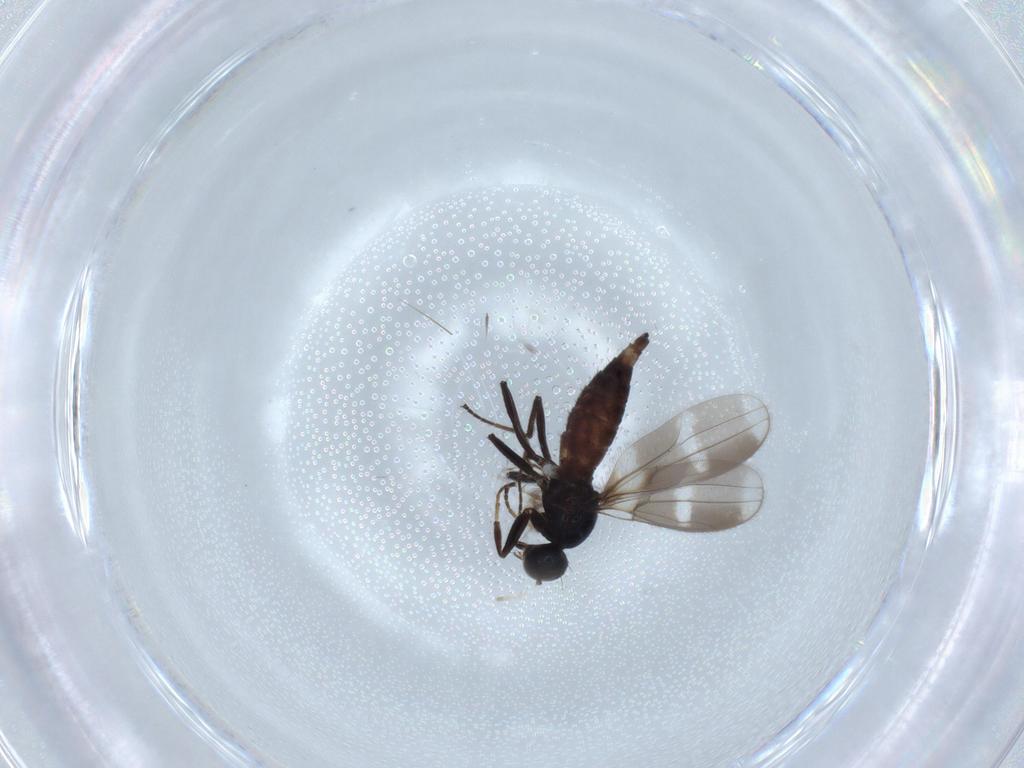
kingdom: Animalia
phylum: Arthropoda
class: Insecta
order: Diptera
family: Hybotidae
